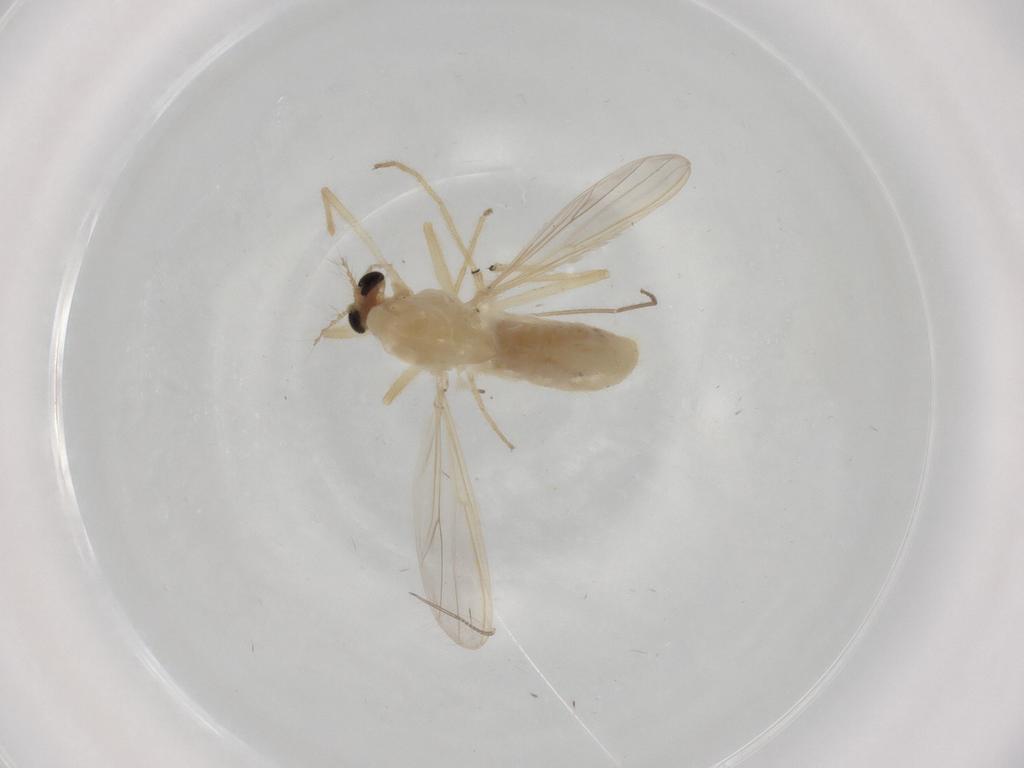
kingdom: Animalia
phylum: Arthropoda
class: Insecta
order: Diptera
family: Chironomidae
